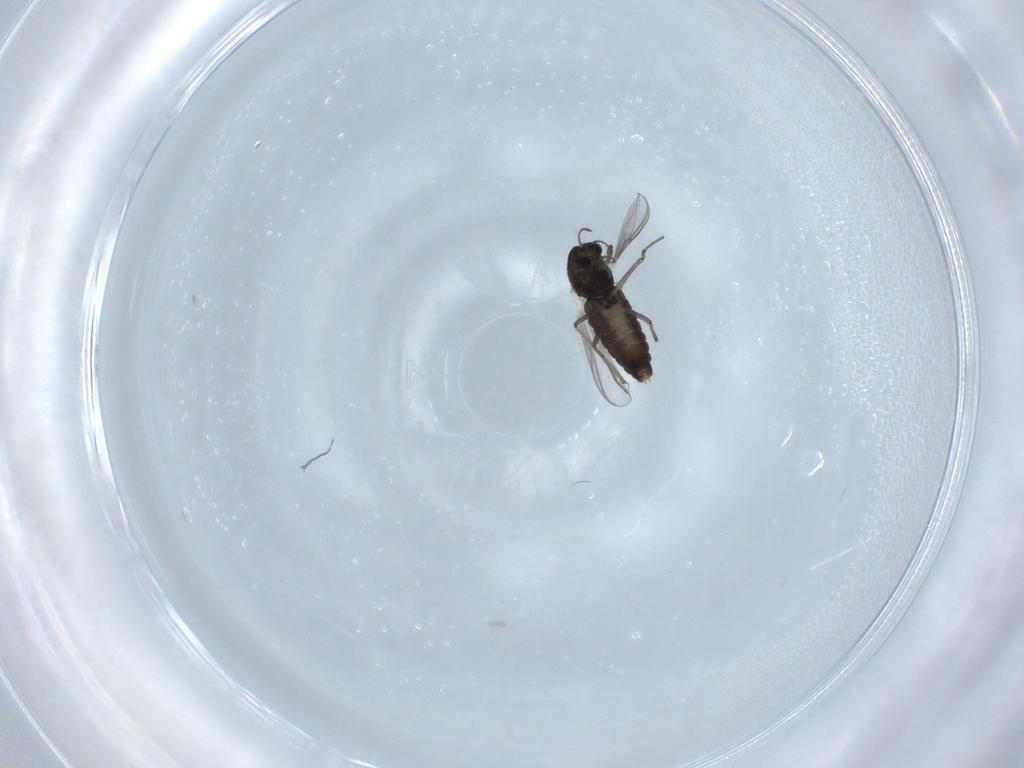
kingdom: Animalia
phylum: Arthropoda
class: Insecta
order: Diptera
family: Chironomidae
